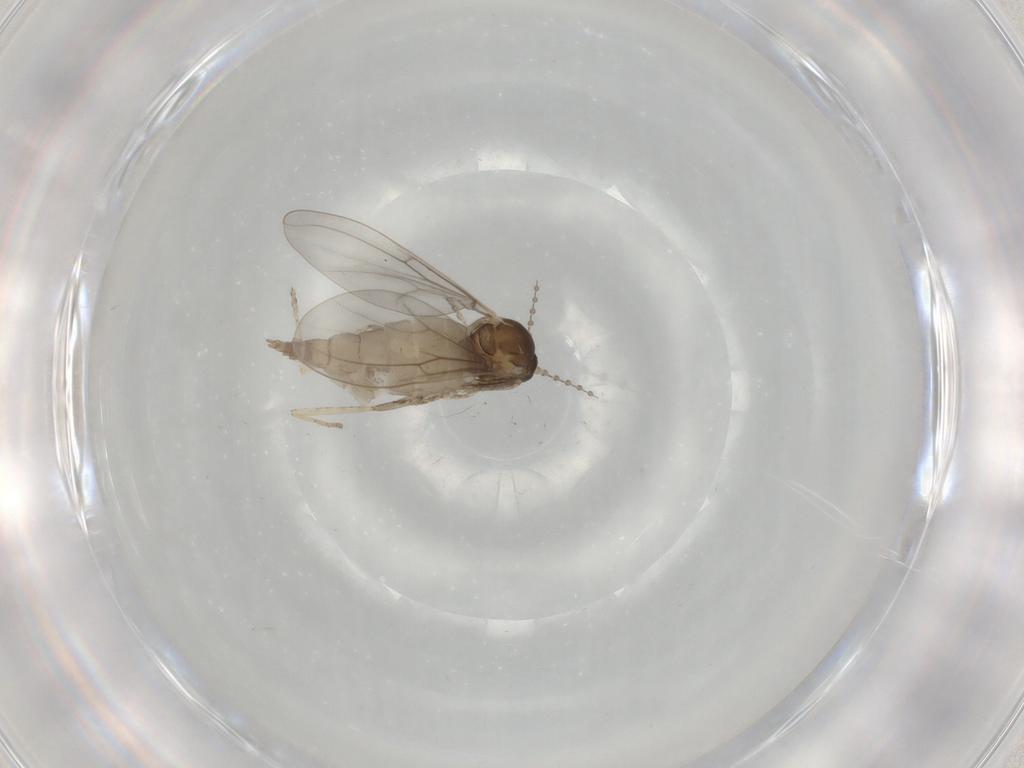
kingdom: Animalia
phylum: Arthropoda
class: Insecta
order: Diptera
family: Cecidomyiidae
